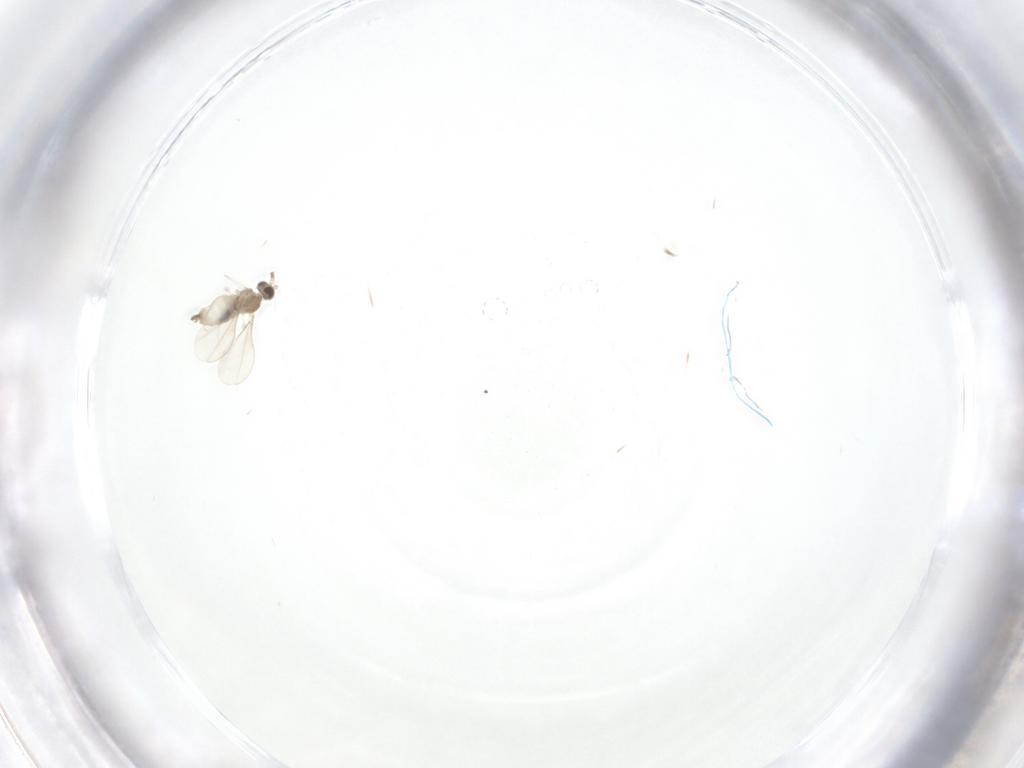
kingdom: Animalia
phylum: Arthropoda
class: Insecta
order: Diptera
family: Cecidomyiidae
